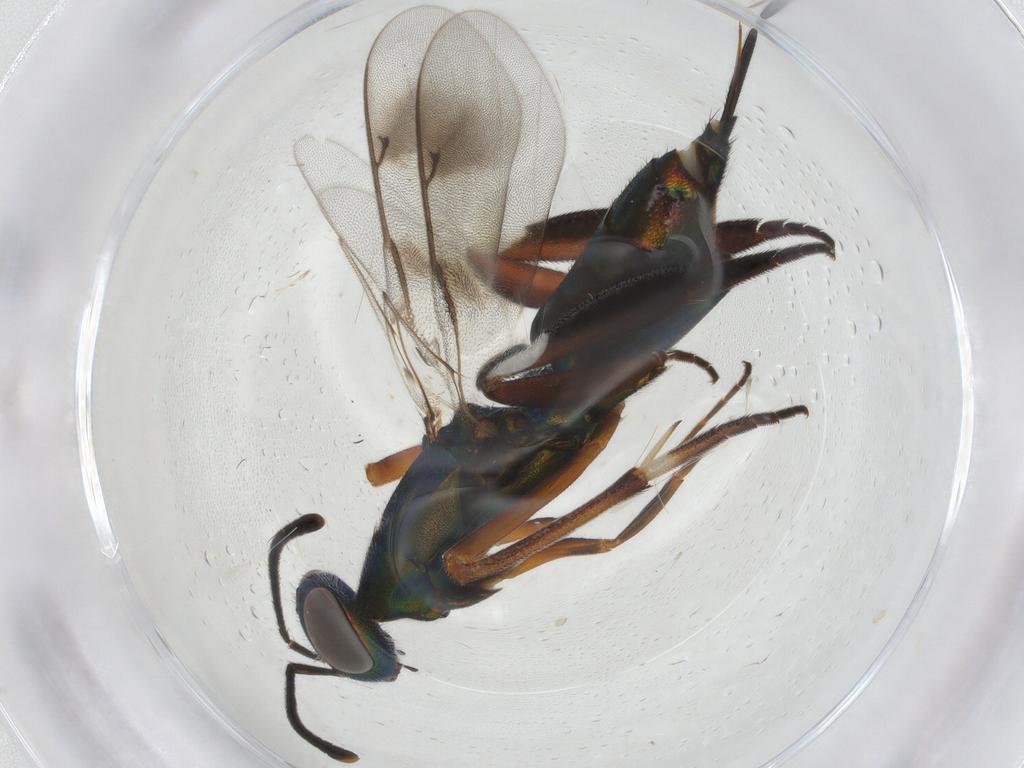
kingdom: Animalia
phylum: Arthropoda
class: Insecta
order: Hymenoptera
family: Metapelmatidae
